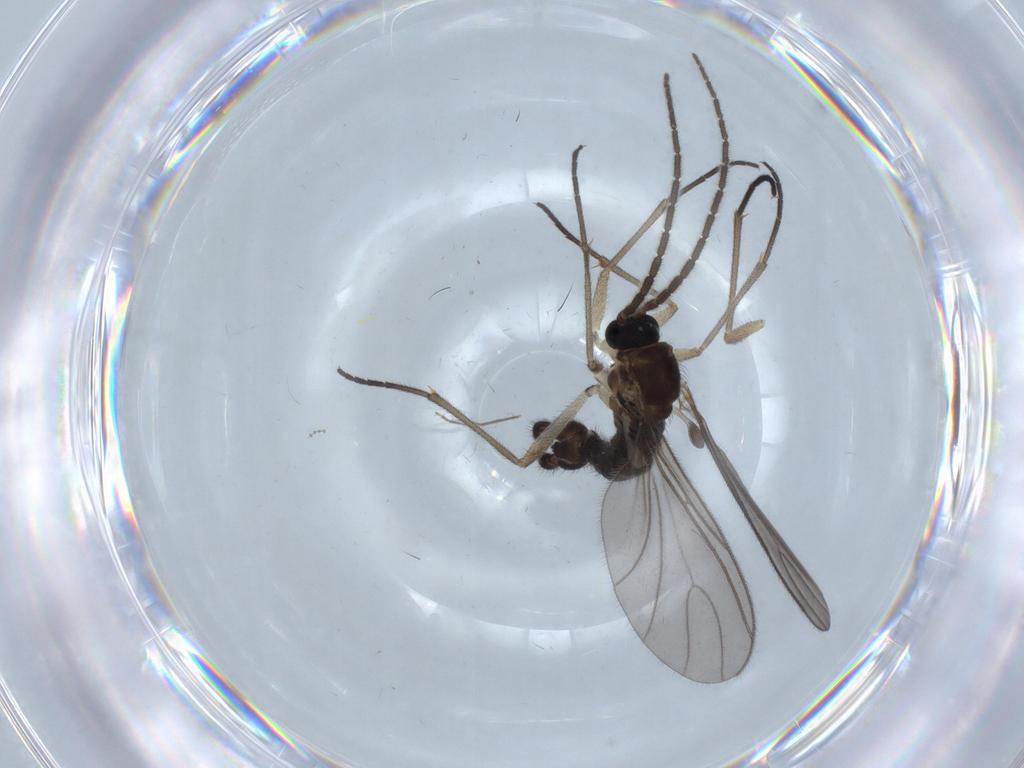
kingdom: Animalia
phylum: Arthropoda
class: Insecta
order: Diptera
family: Sciaridae
